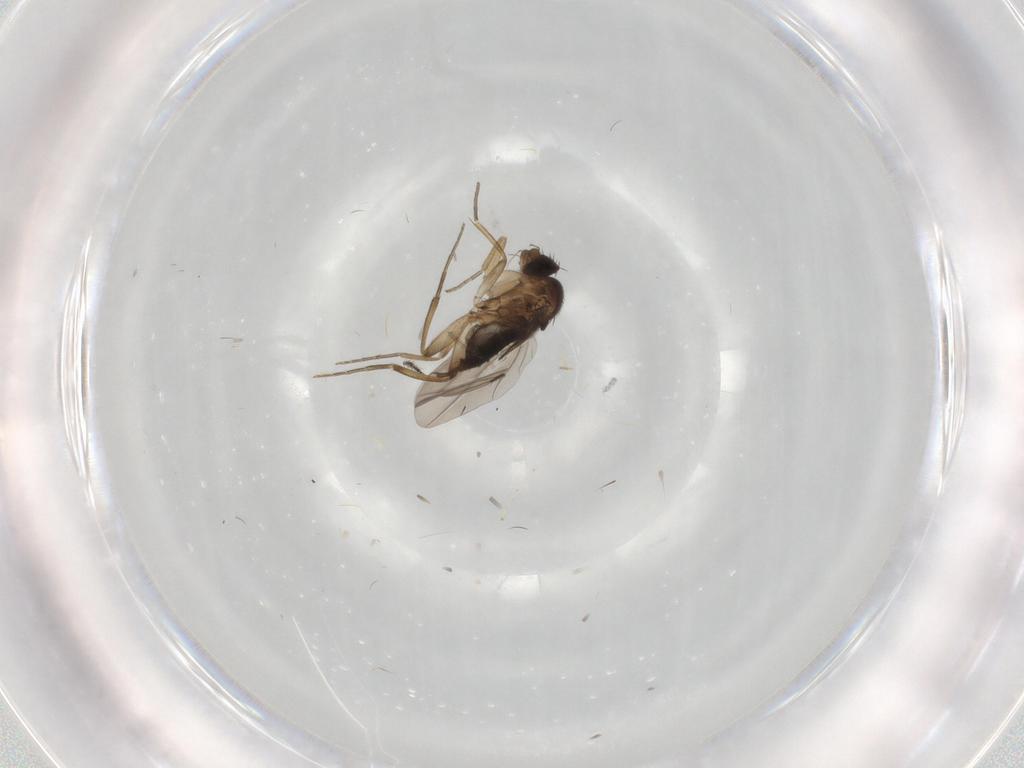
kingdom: Animalia
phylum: Arthropoda
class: Insecta
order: Diptera
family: Phoridae
